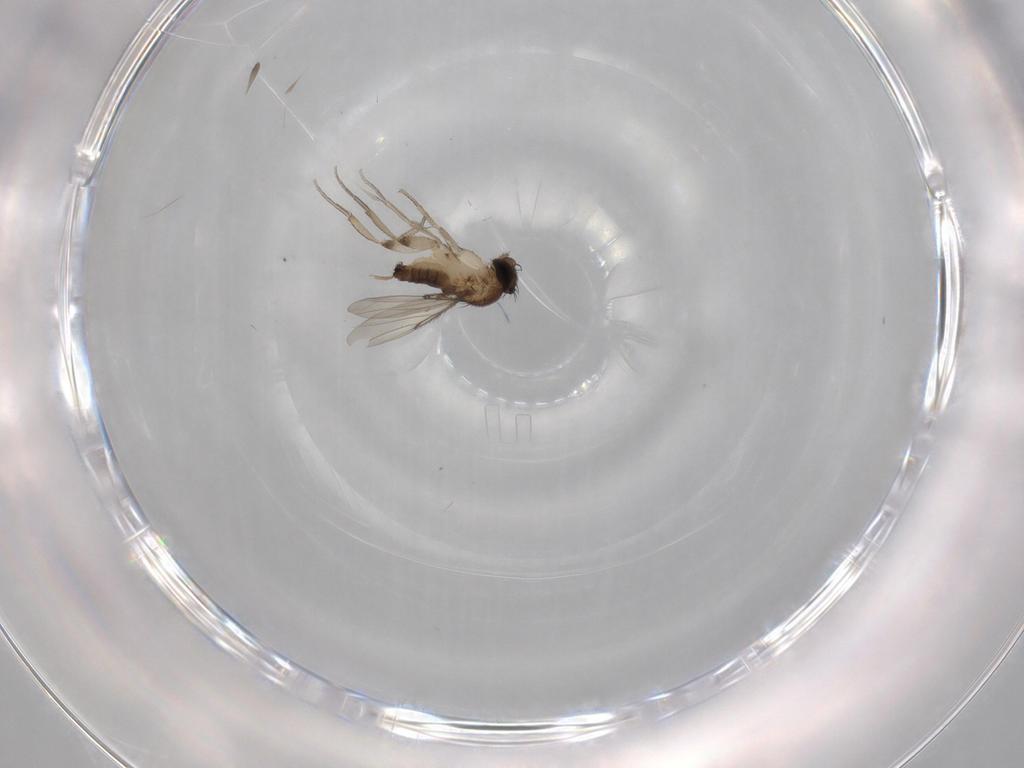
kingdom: Animalia
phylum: Arthropoda
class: Insecta
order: Diptera
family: Phoridae
